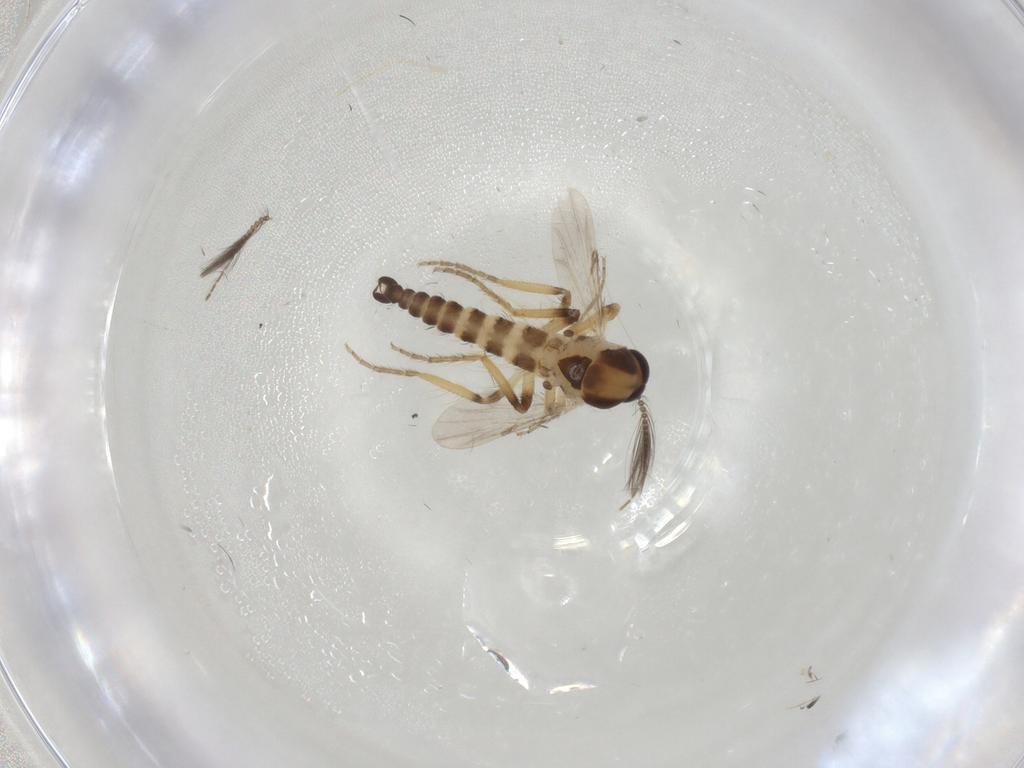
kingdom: Animalia
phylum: Arthropoda
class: Insecta
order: Diptera
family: Ceratopogonidae
